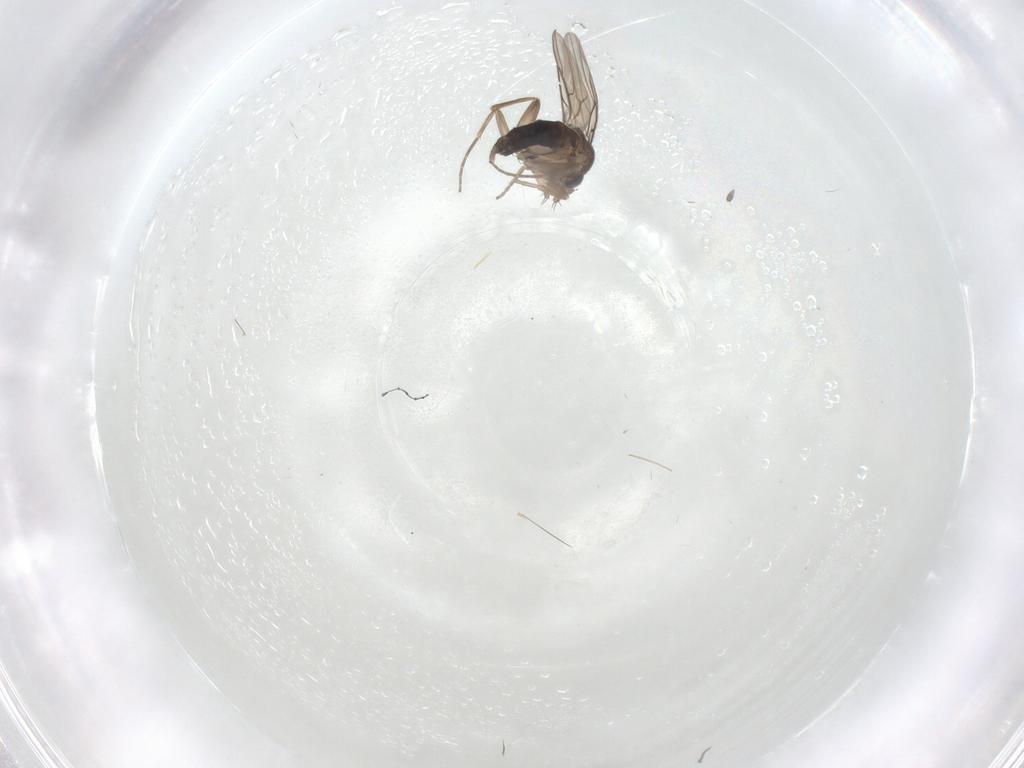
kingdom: Animalia
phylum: Arthropoda
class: Insecta
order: Diptera
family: Phoridae
